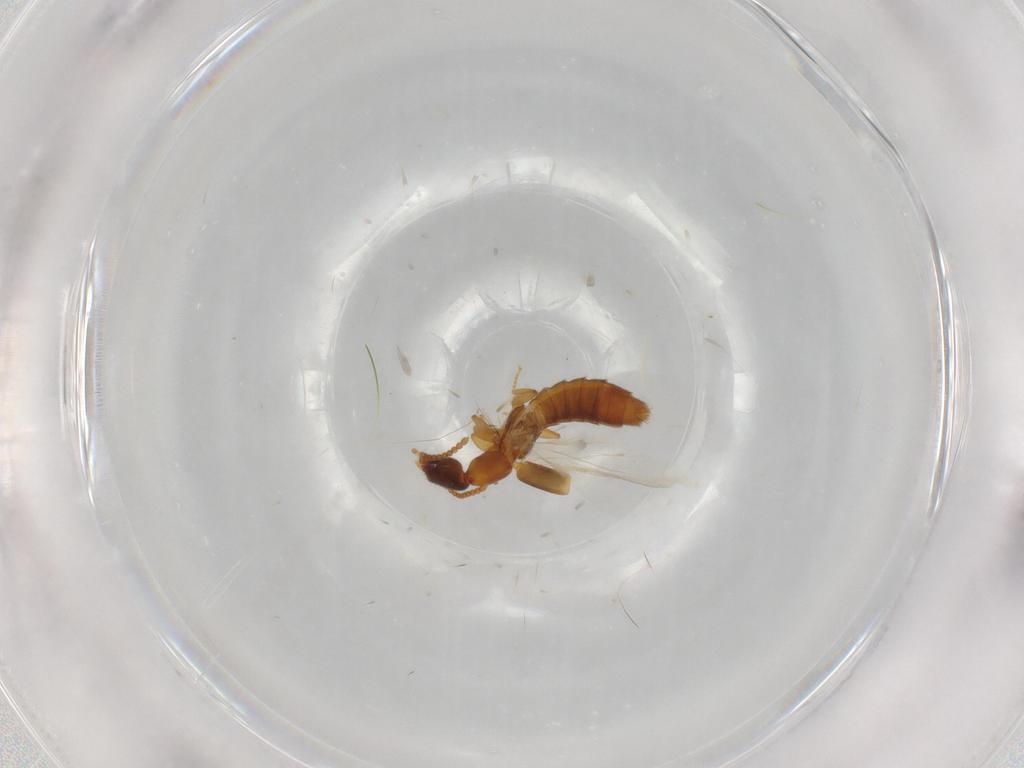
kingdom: Animalia
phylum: Arthropoda
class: Insecta
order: Coleoptera
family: Staphylinidae
